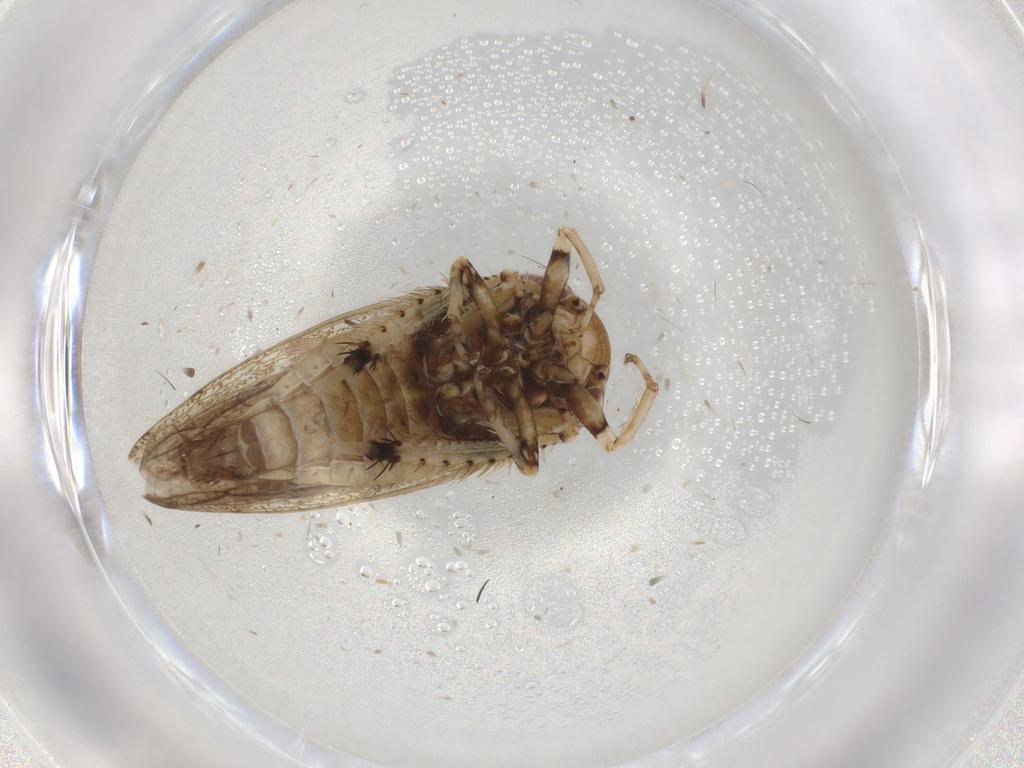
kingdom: Animalia
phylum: Arthropoda
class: Insecta
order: Hemiptera
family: Cicadellidae
